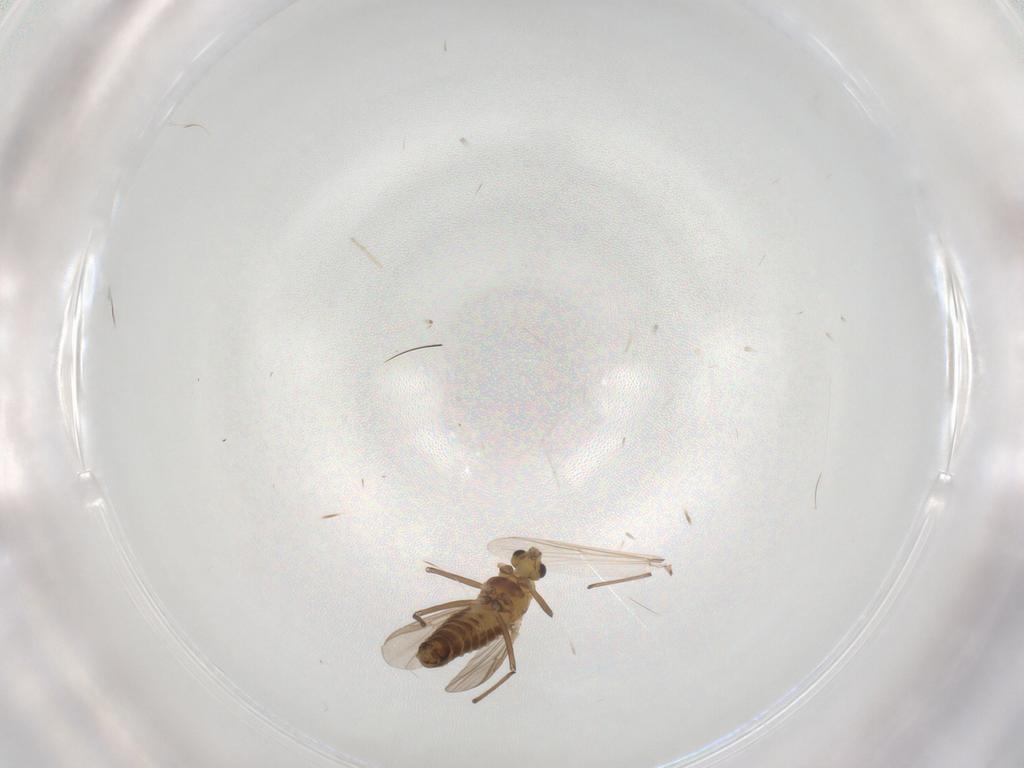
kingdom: Animalia
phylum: Arthropoda
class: Insecta
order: Diptera
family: Chironomidae
